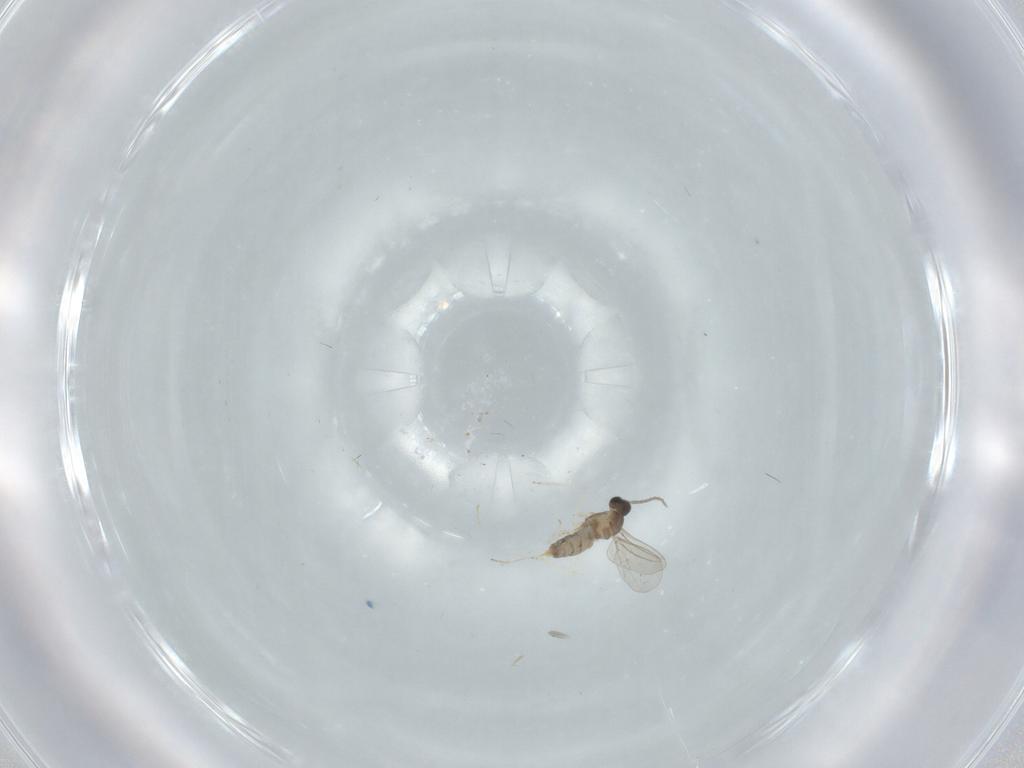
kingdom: Animalia
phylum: Arthropoda
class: Insecta
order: Diptera
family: Cecidomyiidae
